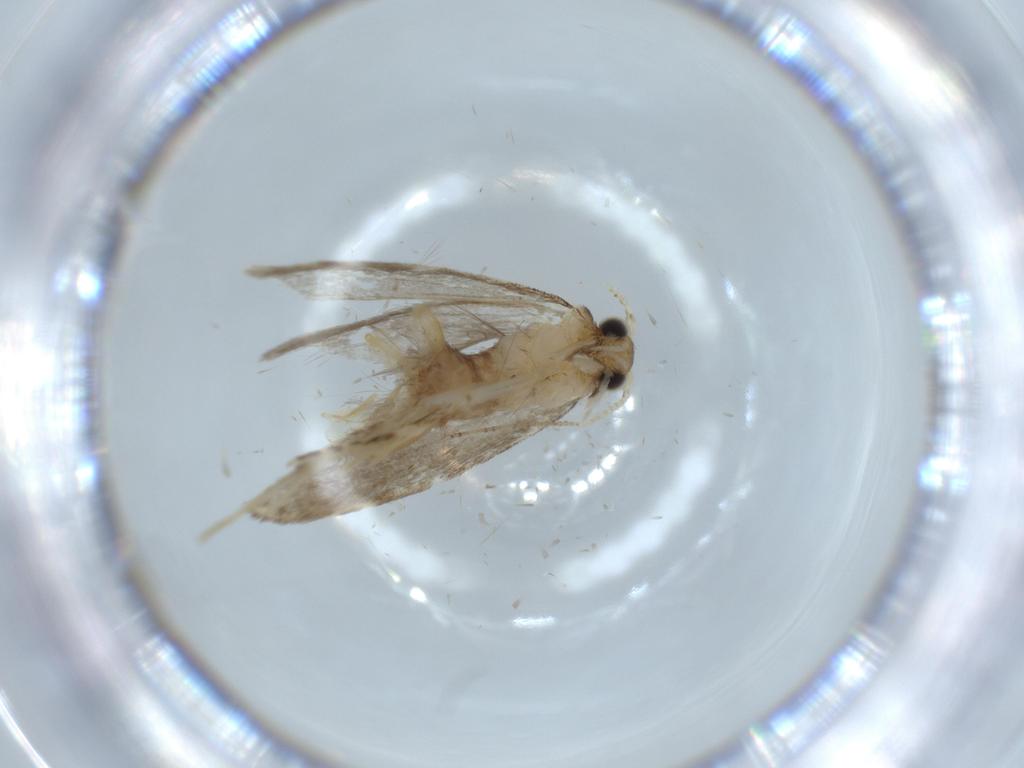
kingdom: Animalia
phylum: Arthropoda
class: Insecta
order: Lepidoptera
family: Tineidae
